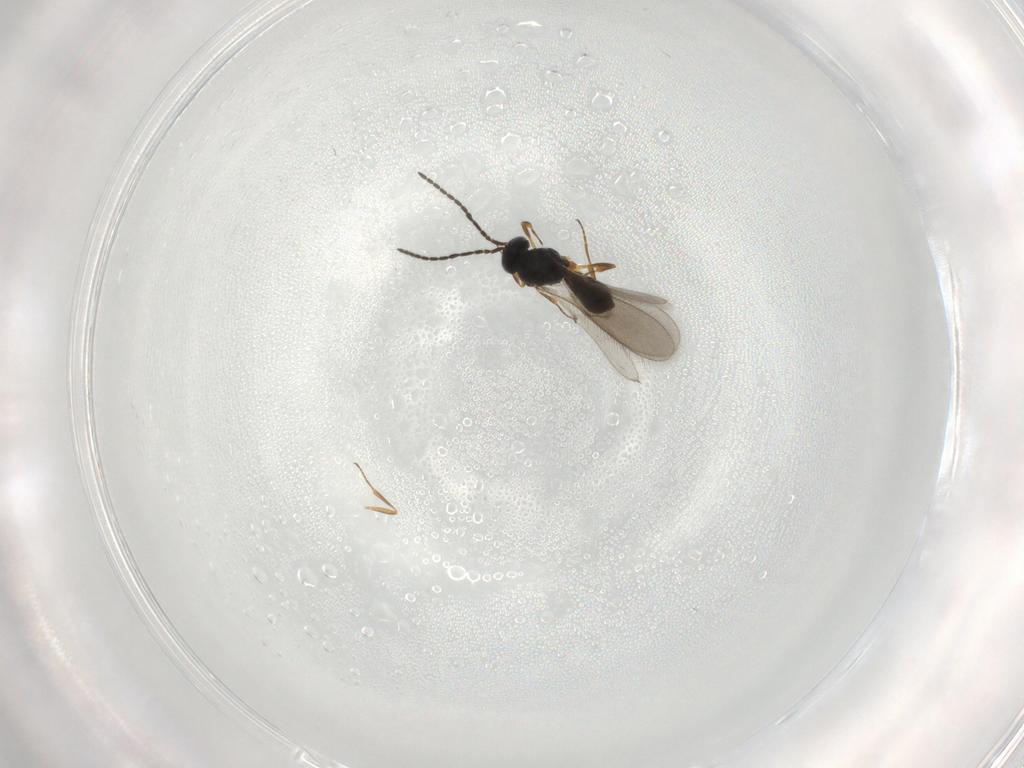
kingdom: Animalia
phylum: Arthropoda
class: Insecta
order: Hymenoptera
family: Scelionidae
